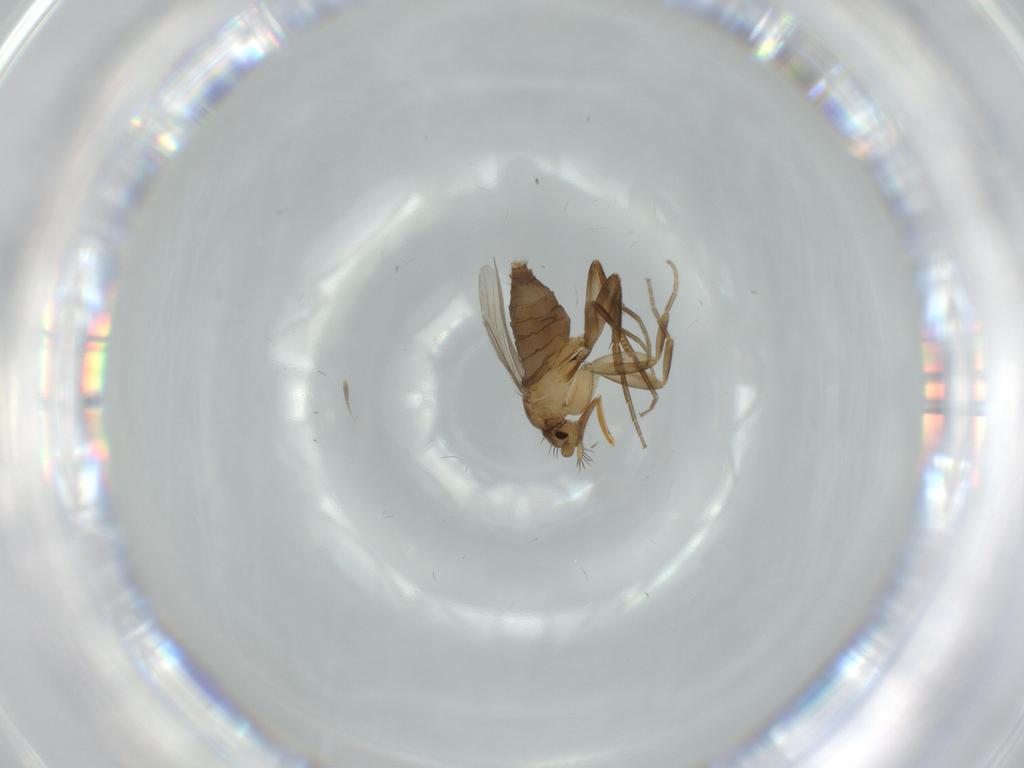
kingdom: Animalia
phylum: Arthropoda
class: Insecta
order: Diptera
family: Phoridae
